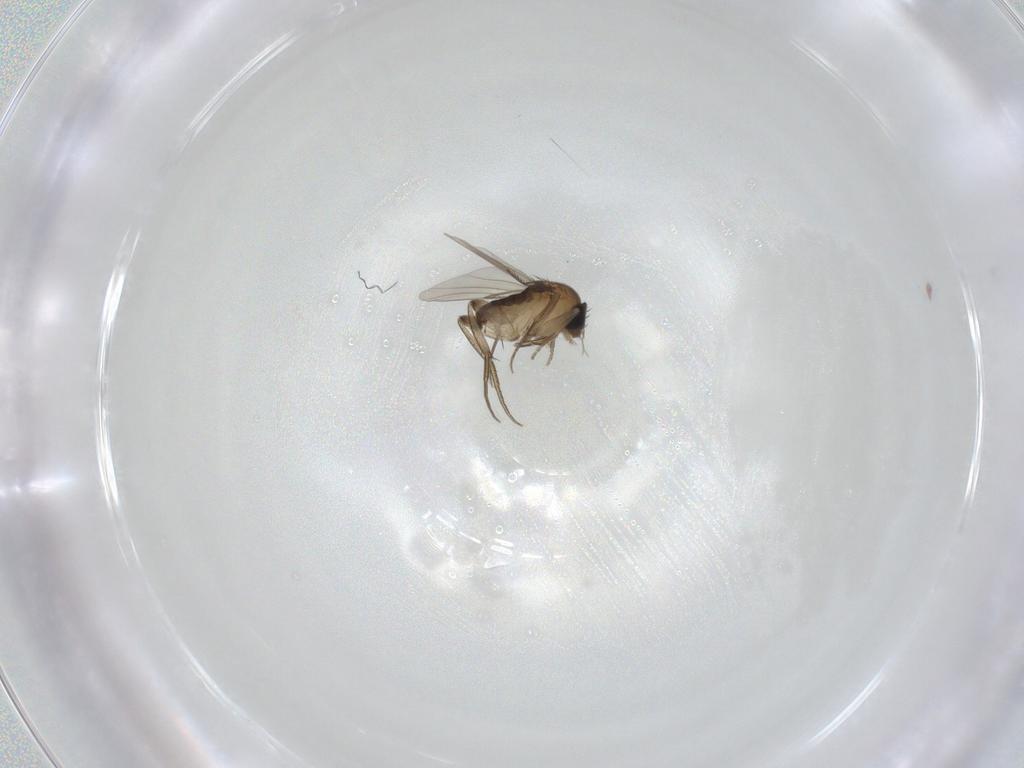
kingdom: Animalia
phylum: Arthropoda
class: Insecta
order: Diptera
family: Phoridae
